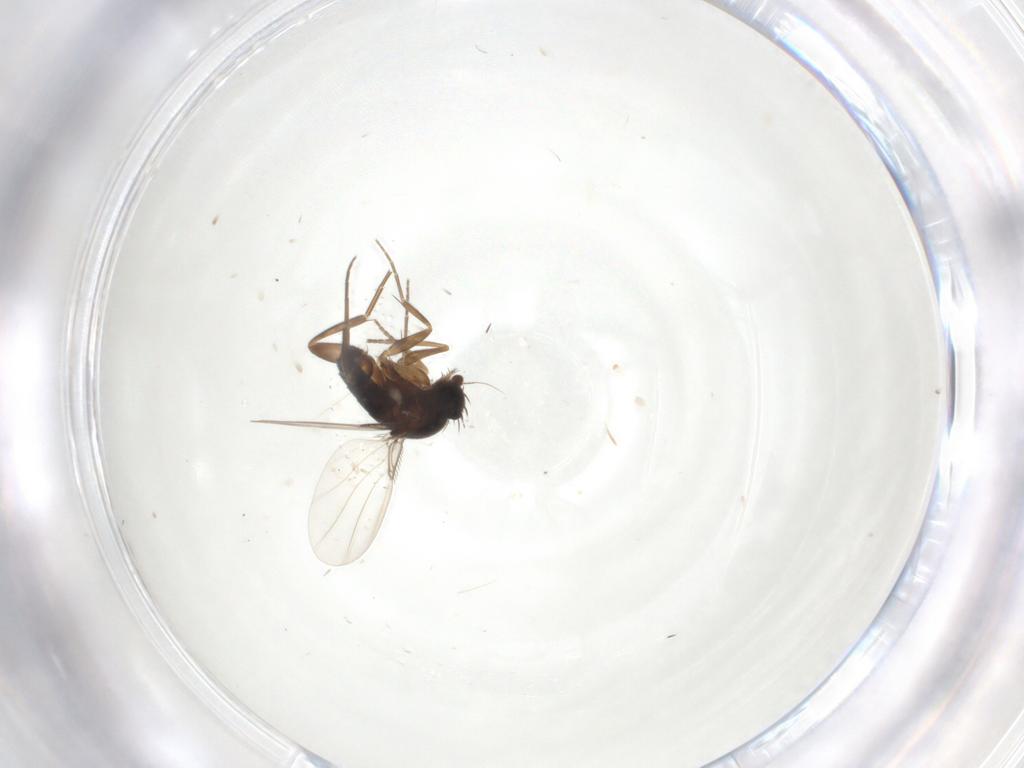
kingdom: Animalia
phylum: Arthropoda
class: Insecta
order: Diptera
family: Phoridae
